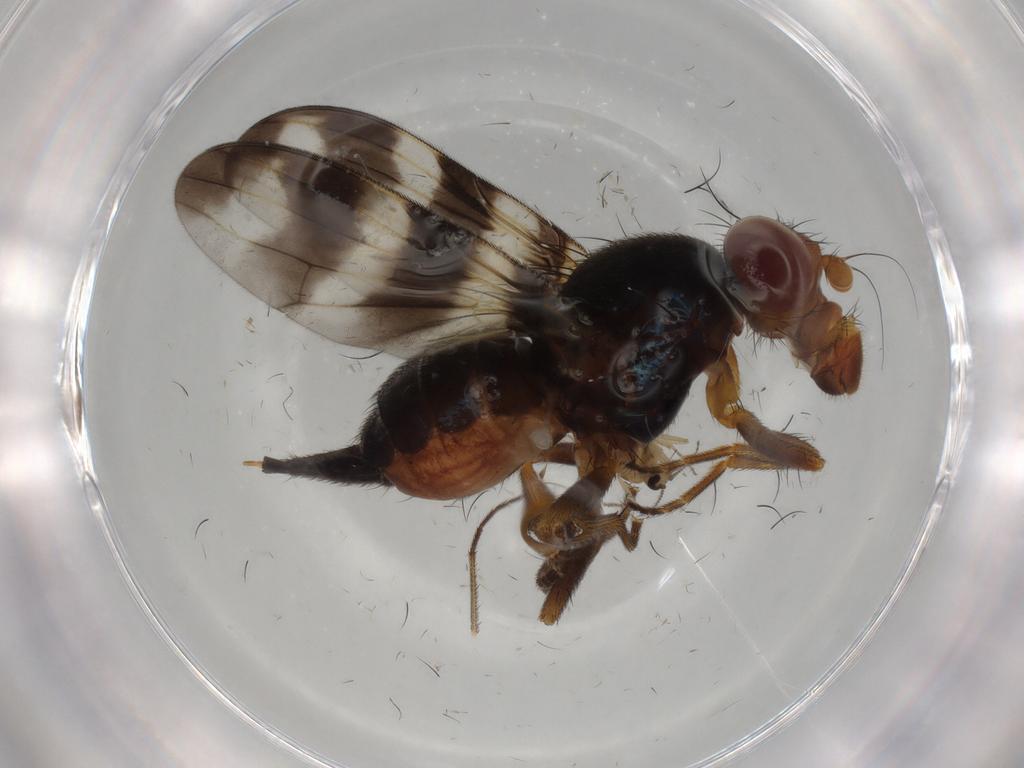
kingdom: Animalia
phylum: Arthropoda
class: Insecta
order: Diptera
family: Ulidiidae
